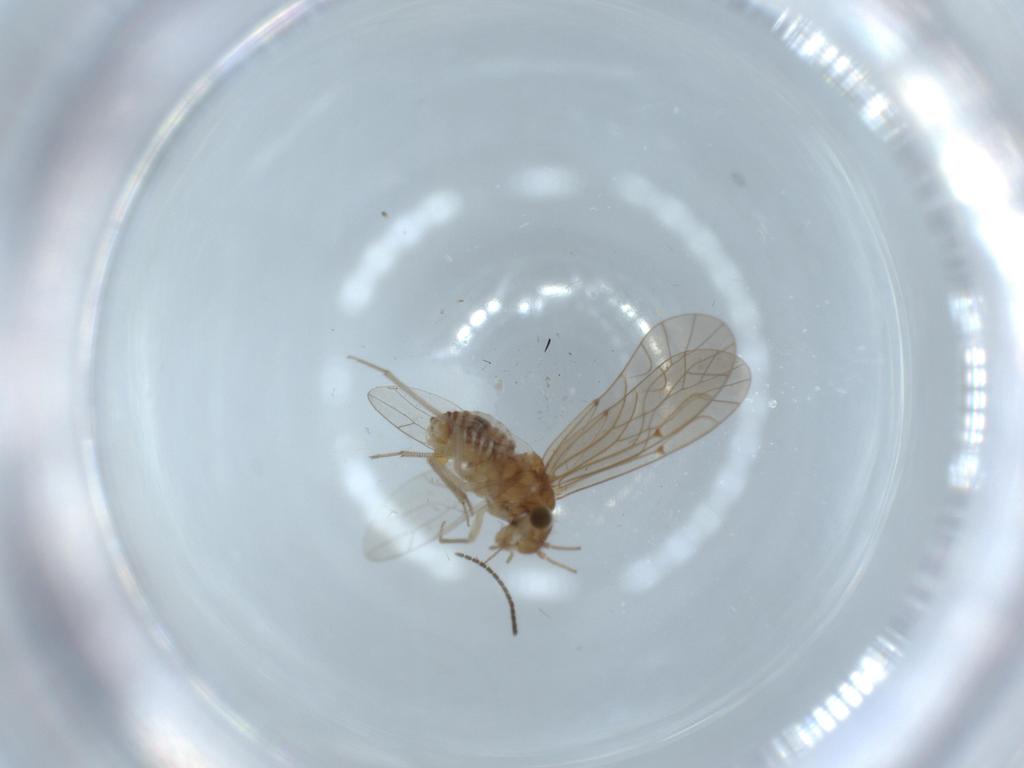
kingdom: Animalia
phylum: Arthropoda
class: Insecta
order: Psocodea
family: Lachesillidae
